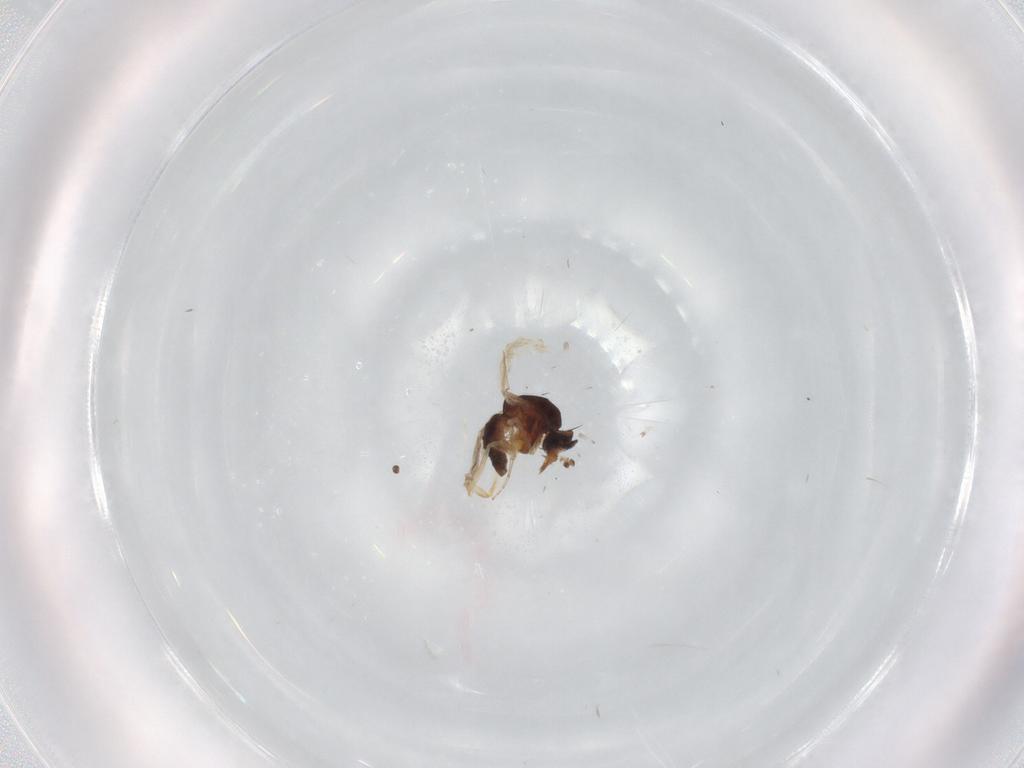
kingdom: Animalia
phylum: Arthropoda
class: Insecta
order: Diptera
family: Ceratopogonidae
